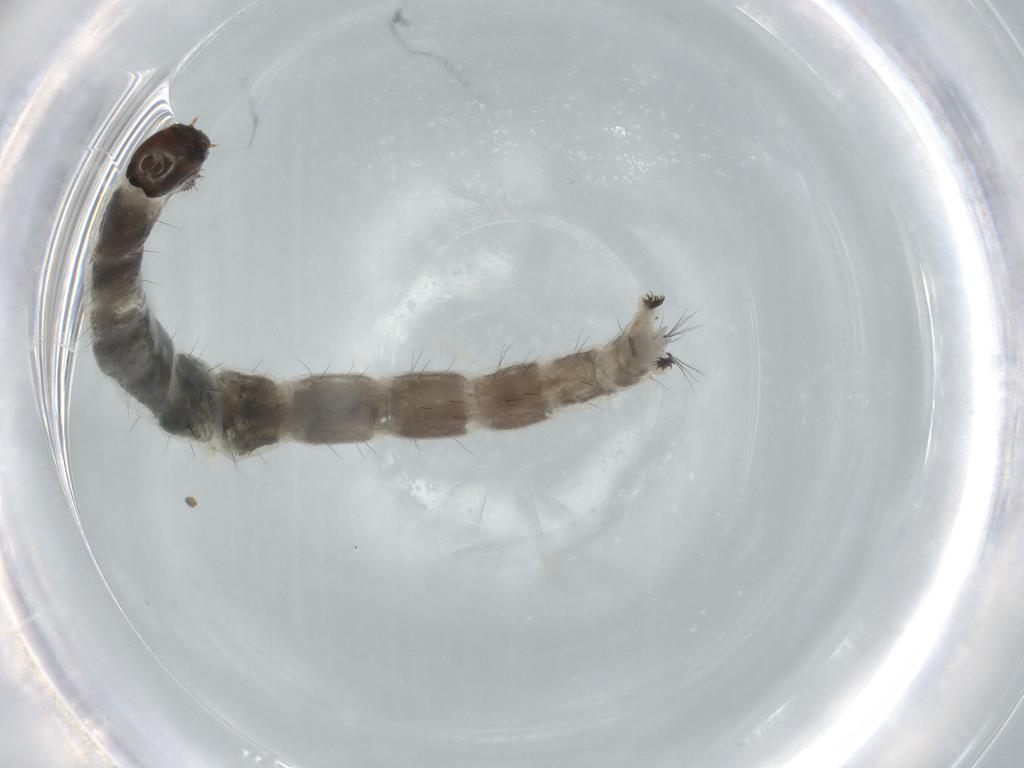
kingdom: Animalia
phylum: Arthropoda
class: Insecta
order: Diptera
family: Chironomidae
